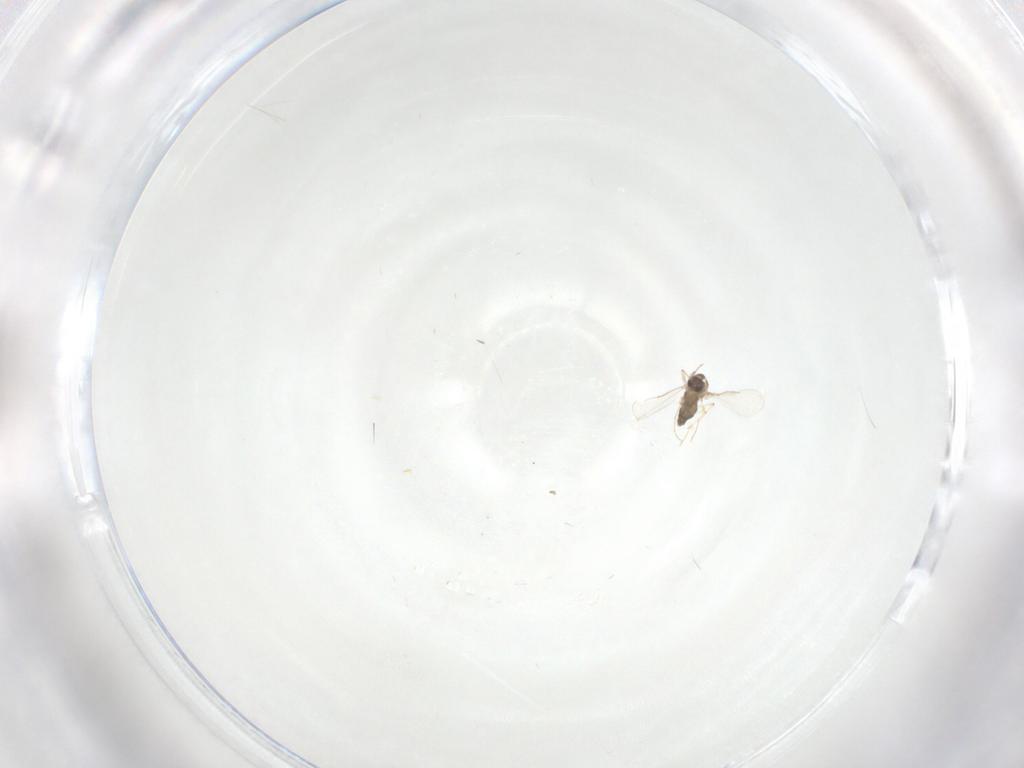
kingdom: Animalia
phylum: Arthropoda
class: Insecta
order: Diptera
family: Chironomidae
